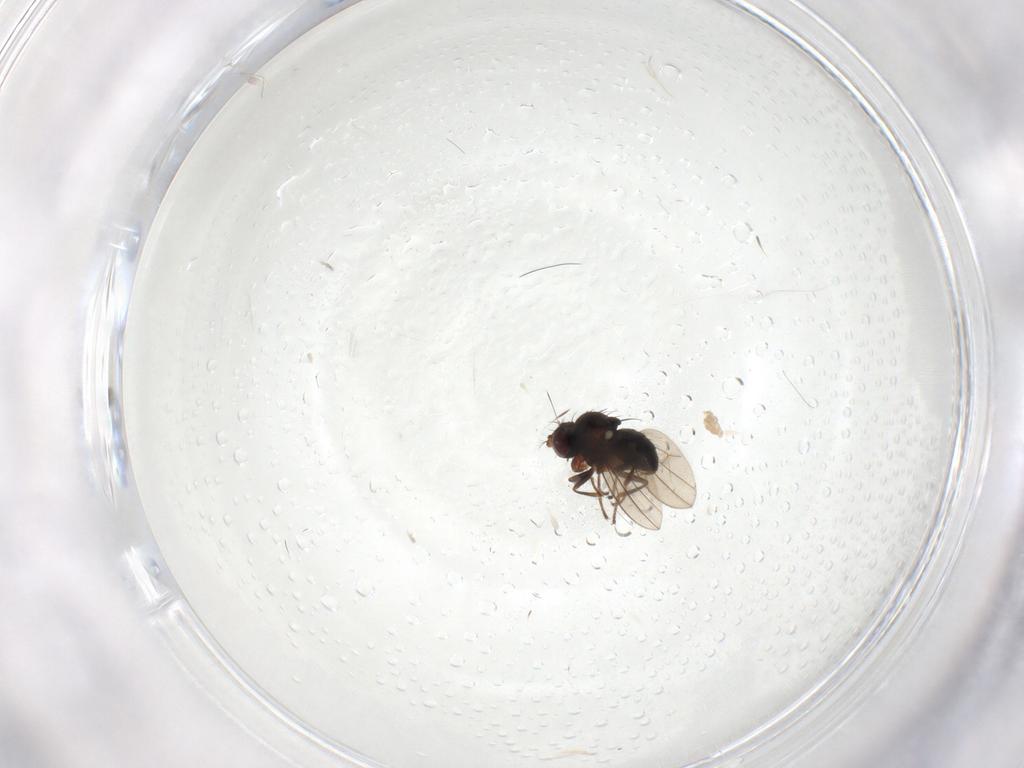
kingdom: Animalia
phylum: Arthropoda
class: Insecta
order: Diptera
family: Ephydridae
